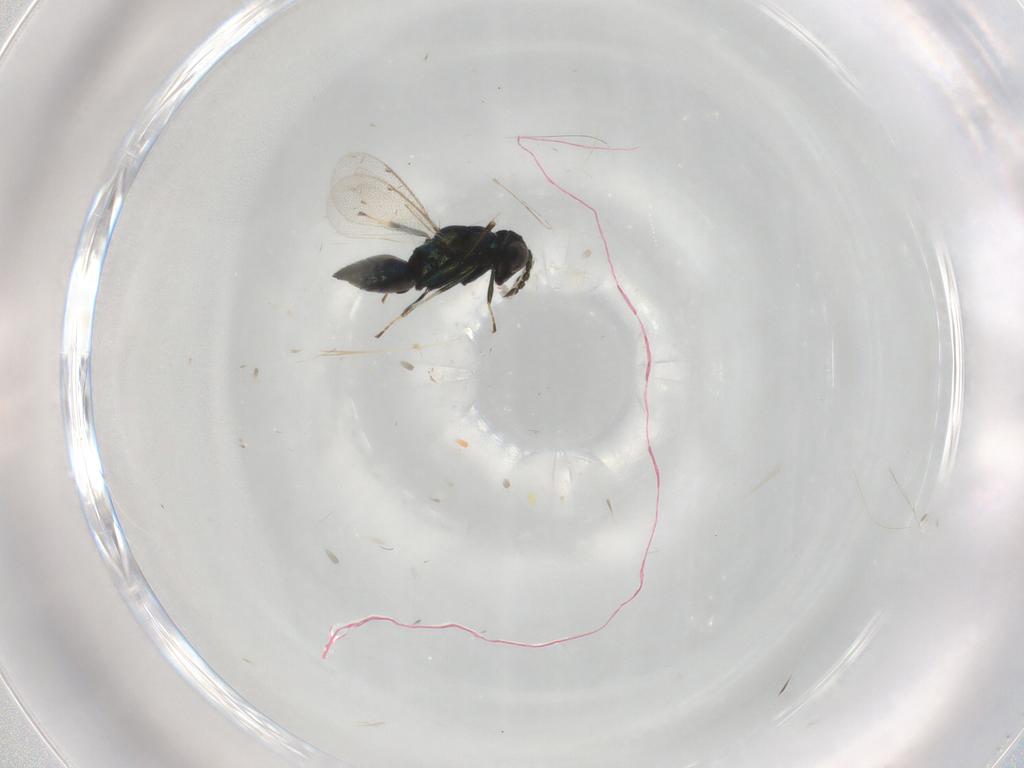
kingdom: Animalia
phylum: Arthropoda
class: Insecta
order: Hymenoptera
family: Eulophidae
